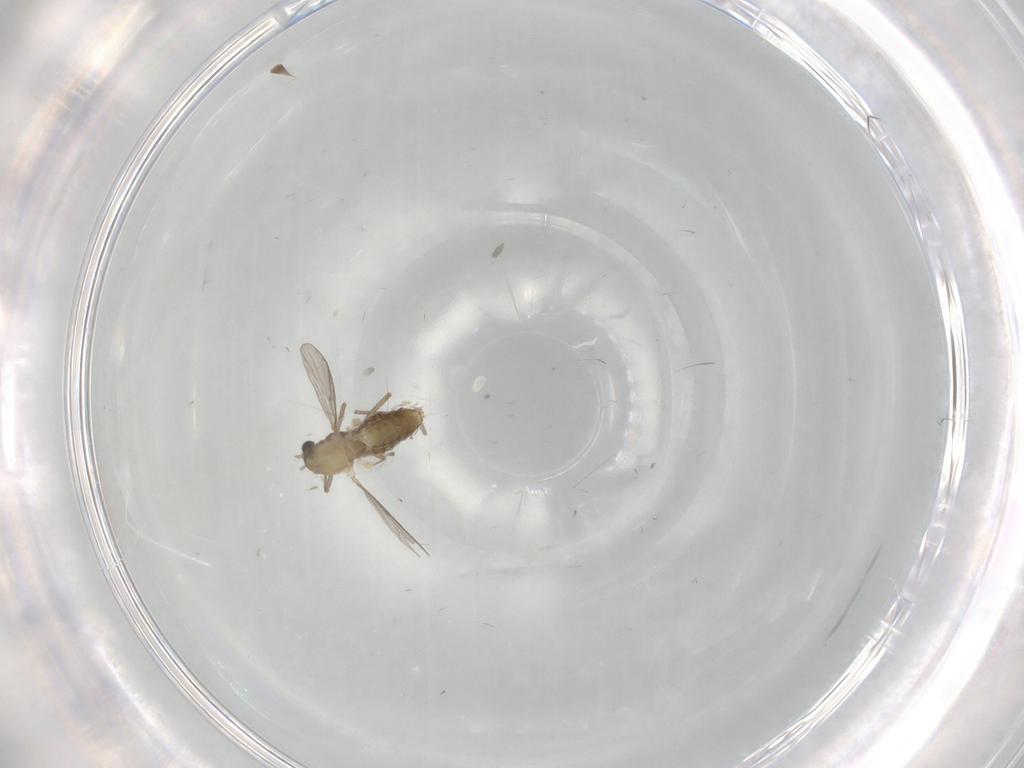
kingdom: Animalia
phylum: Arthropoda
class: Insecta
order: Diptera
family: Chironomidae
